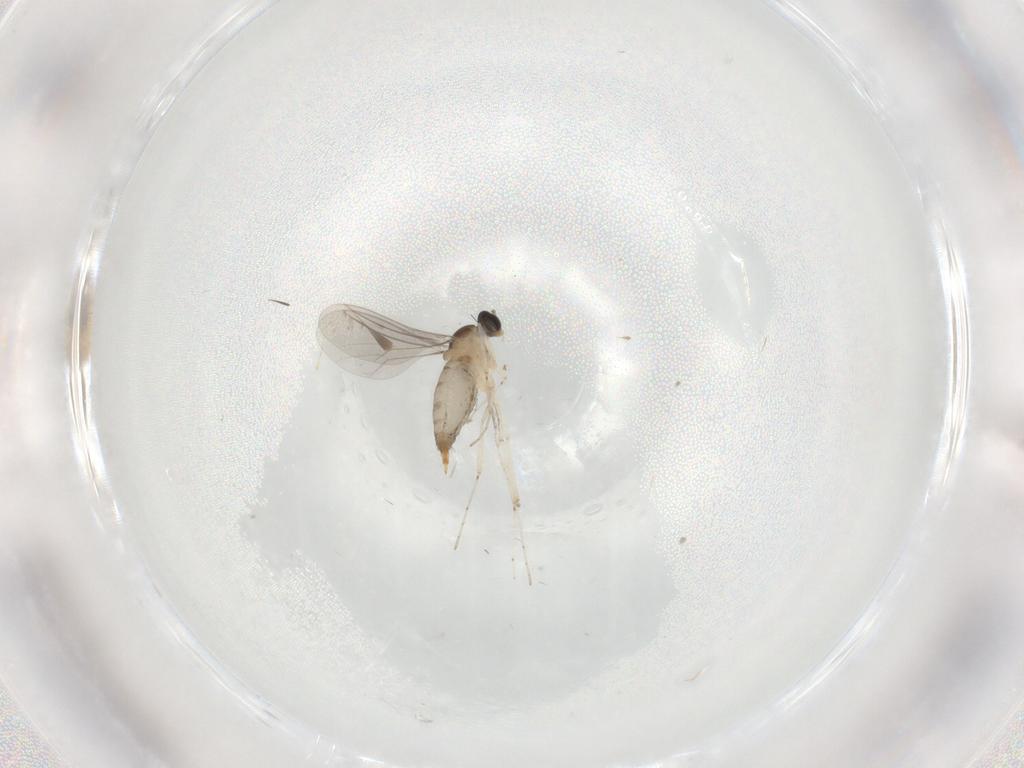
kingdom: Animalia
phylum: Arthropoda
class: Insecta
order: Diptera
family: Cecidomyiidae
